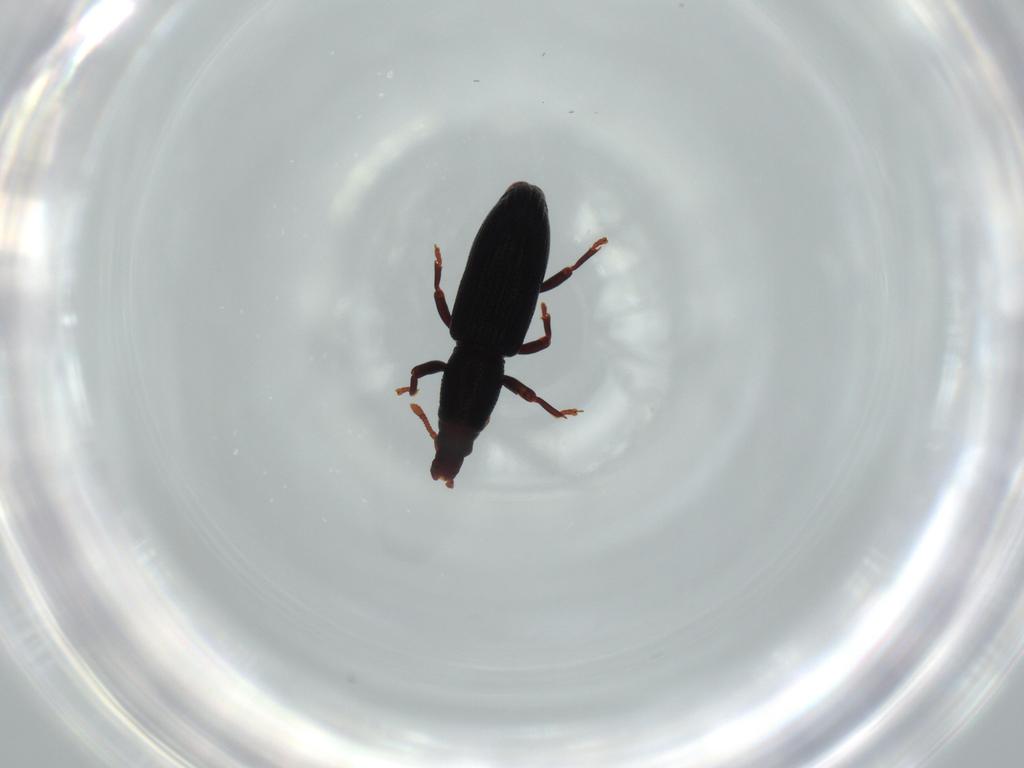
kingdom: Animalia
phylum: Arthropoda
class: Insecta
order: Coleoptera
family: Curculionidae
